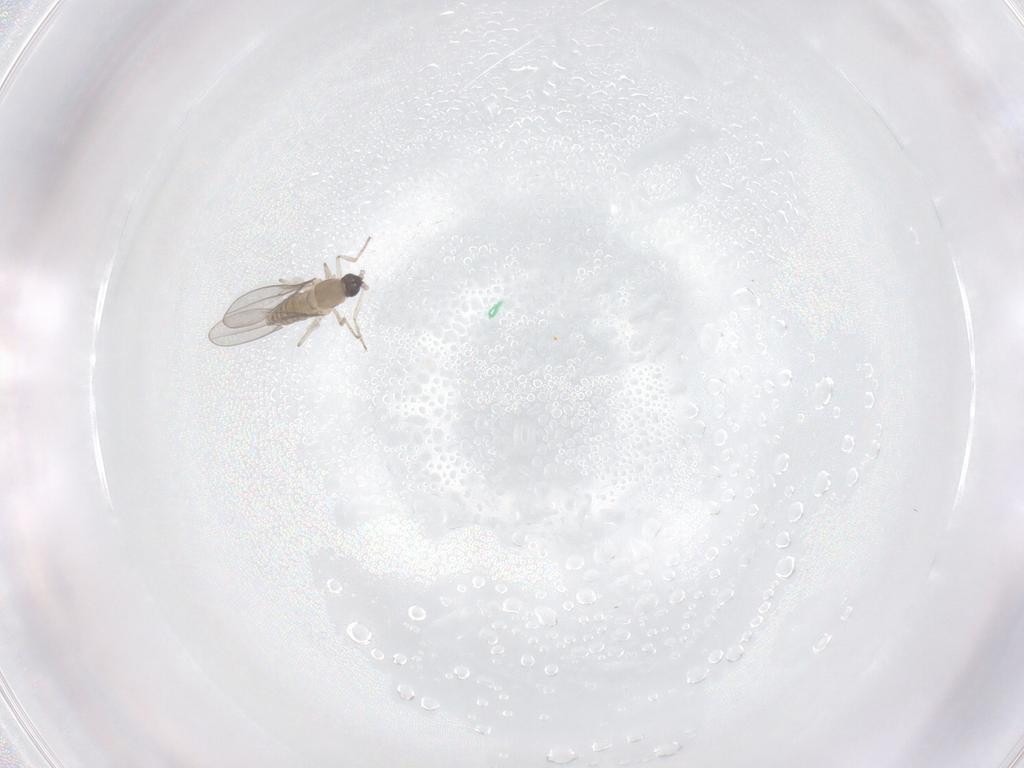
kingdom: Animalia
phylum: Arthropoda
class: Insecta
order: Diptera
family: Cecidomyiidae
